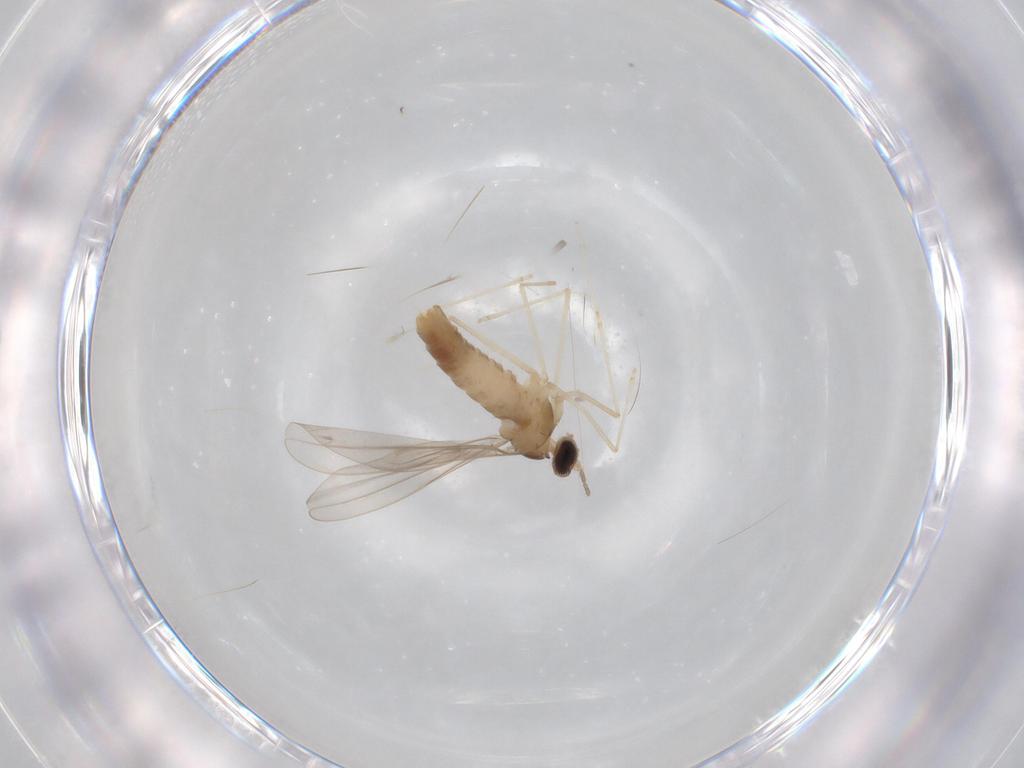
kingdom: Animalia
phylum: Arthropoda
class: Insecta
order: Diptera
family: Cecidomyiidae
